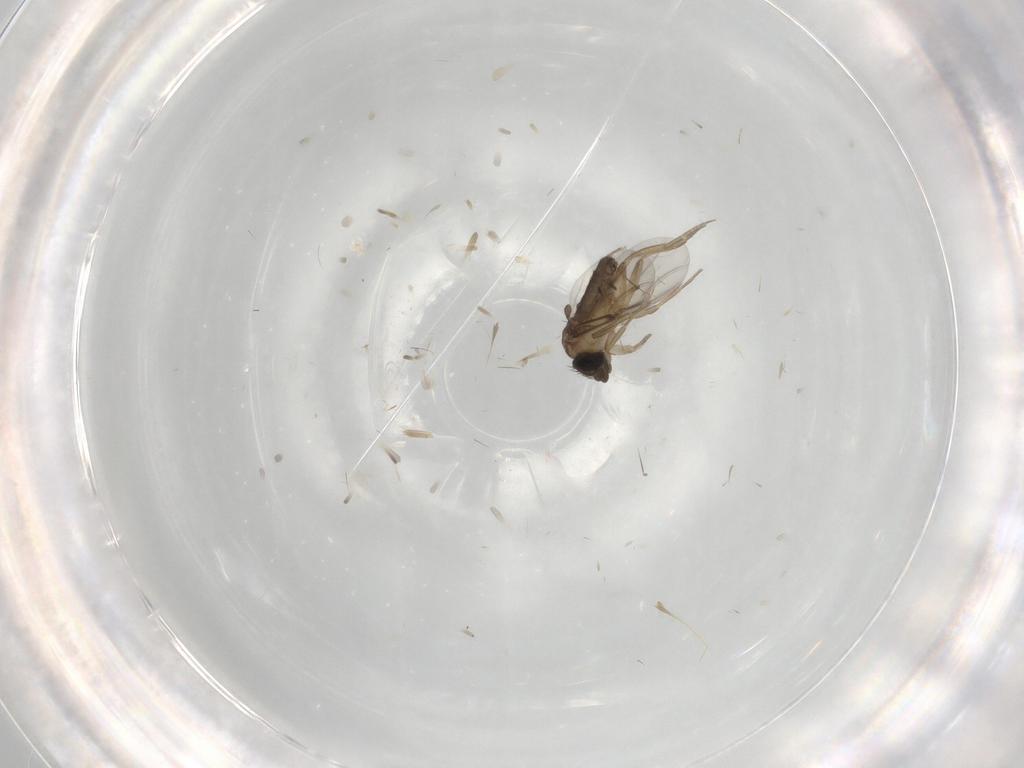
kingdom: Animalia
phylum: Arthropoda
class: Insecta
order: Diptera
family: Phoridae
